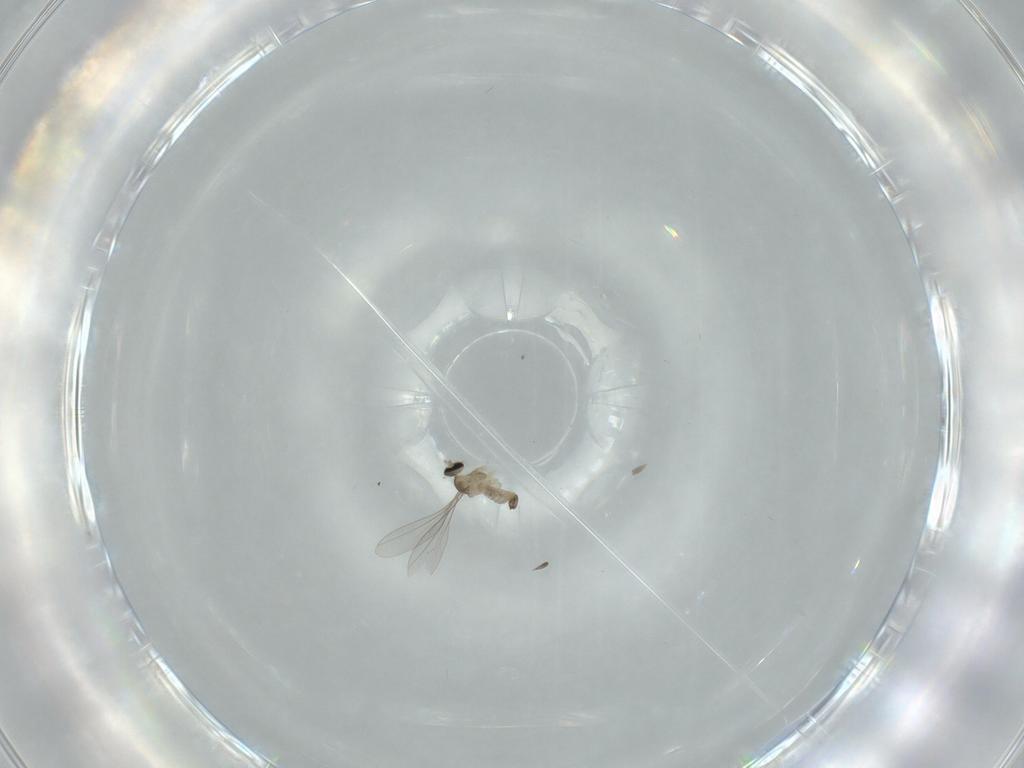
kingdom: Animalia
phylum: Arthropoda
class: Insecta
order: Diptera
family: Cecidomyiidae
